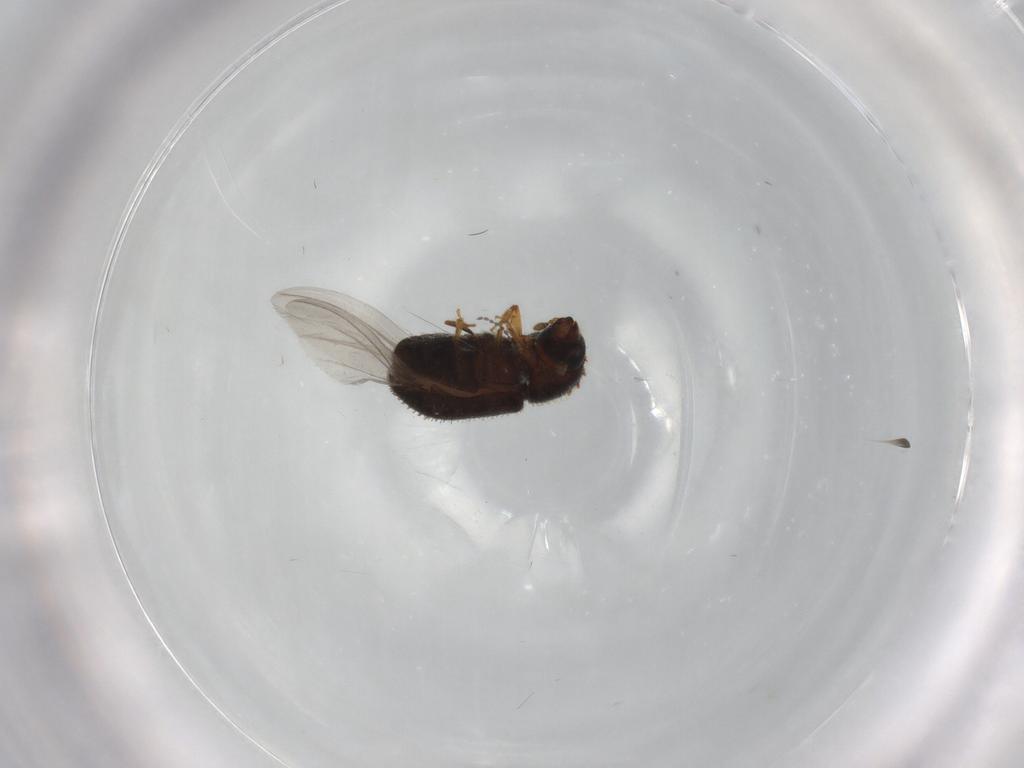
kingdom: Animalia
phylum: Arthropoda
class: Insecta
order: Coleoptera
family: Scraptiidae
